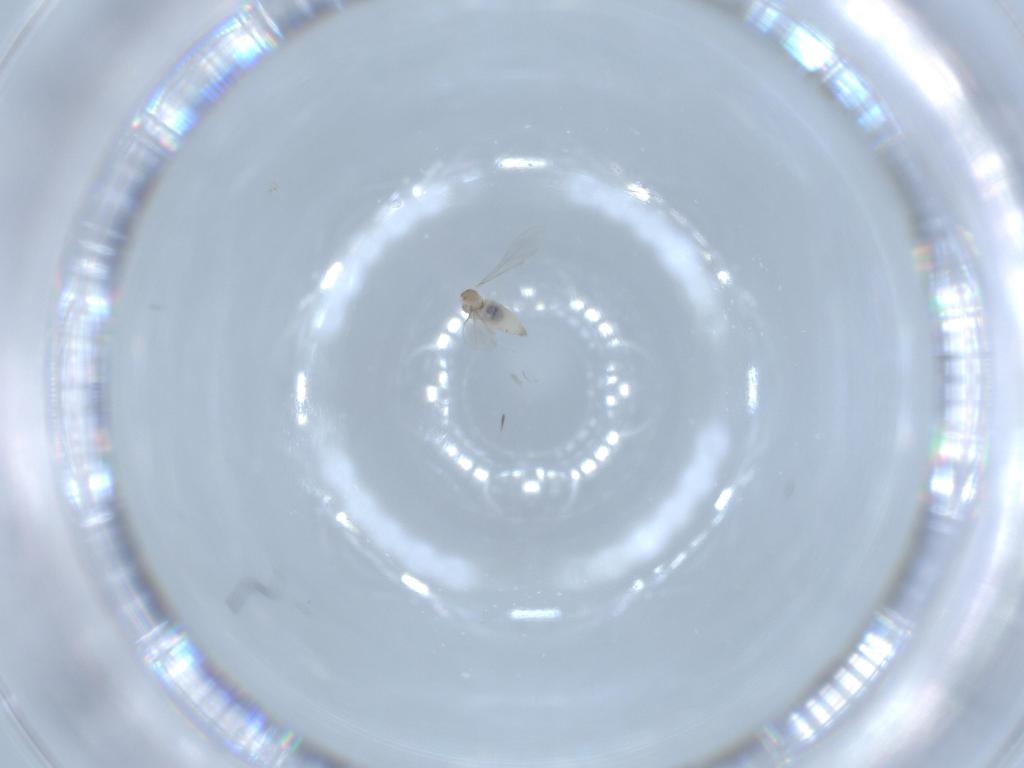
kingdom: Animalia
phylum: Arthropoda
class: Insecta
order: Diptera
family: Cecidomyiidae
